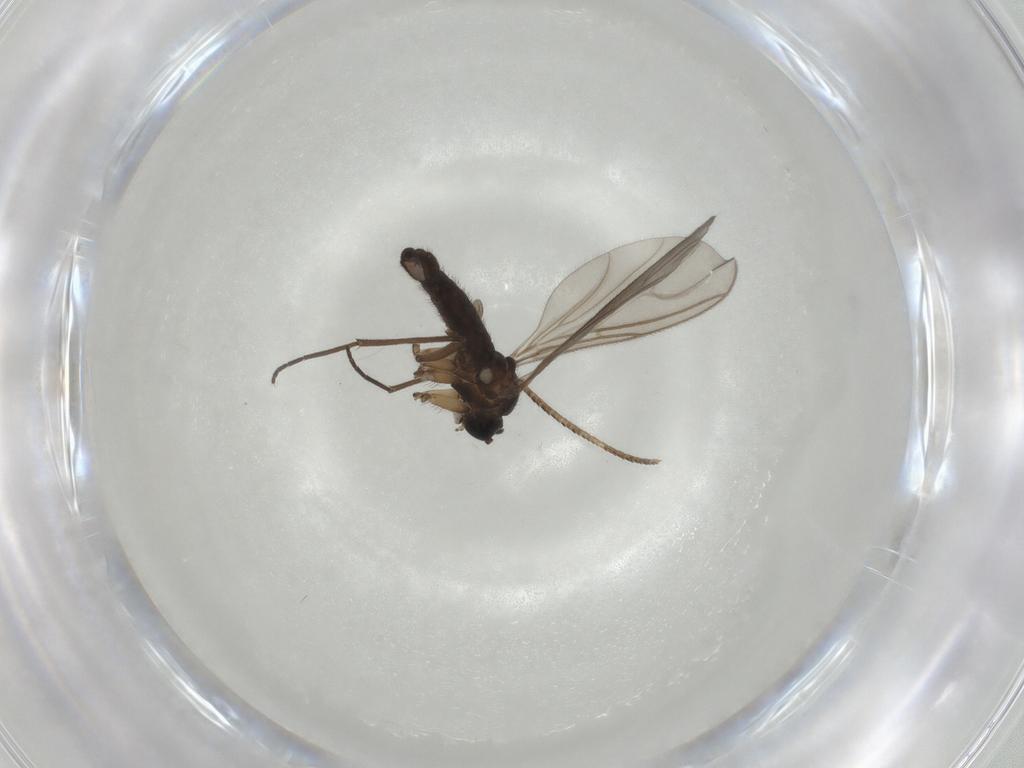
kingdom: Animalia
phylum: Arthropoda
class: Insecta
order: Diptera
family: Sciaridae
